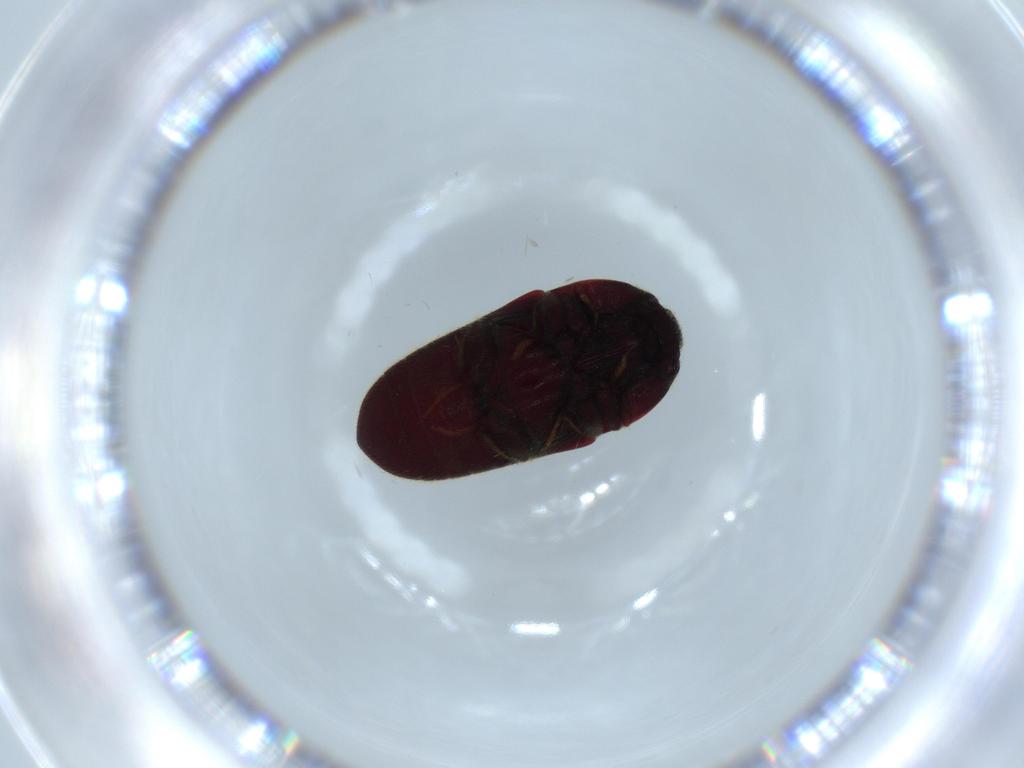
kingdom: Animalia
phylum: Arthropoda
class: Insecta
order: Coleoptera
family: Throscidae
